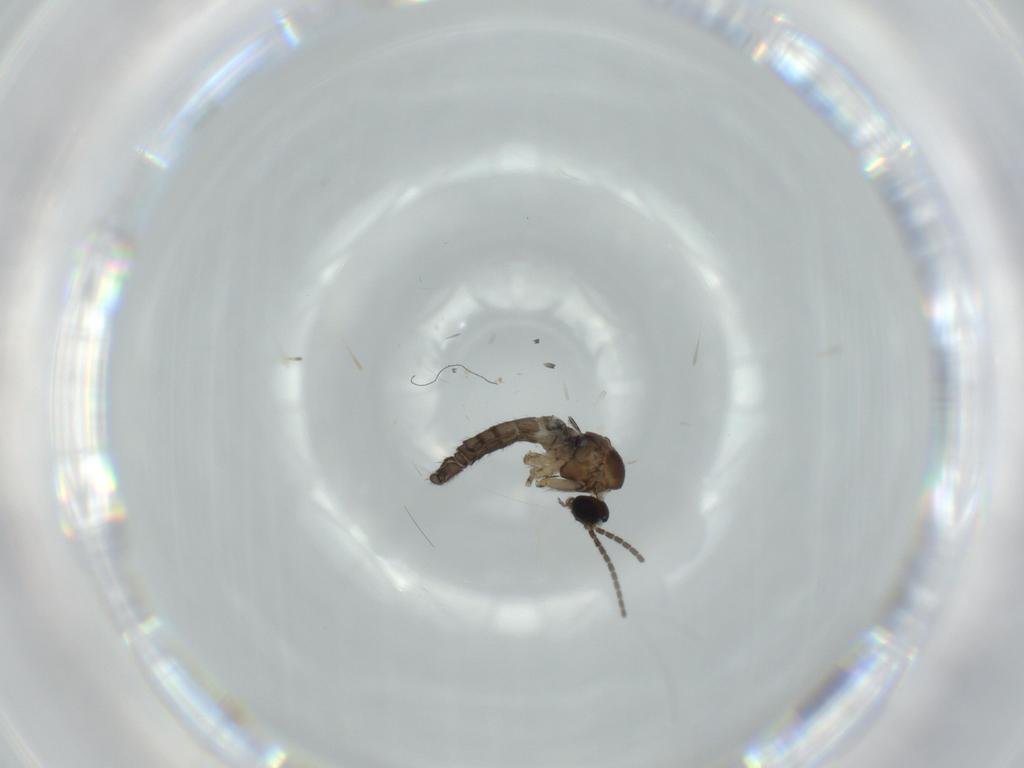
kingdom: Animalia
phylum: Arthropoda
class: Insecta
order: Diptera
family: Sciaridae
